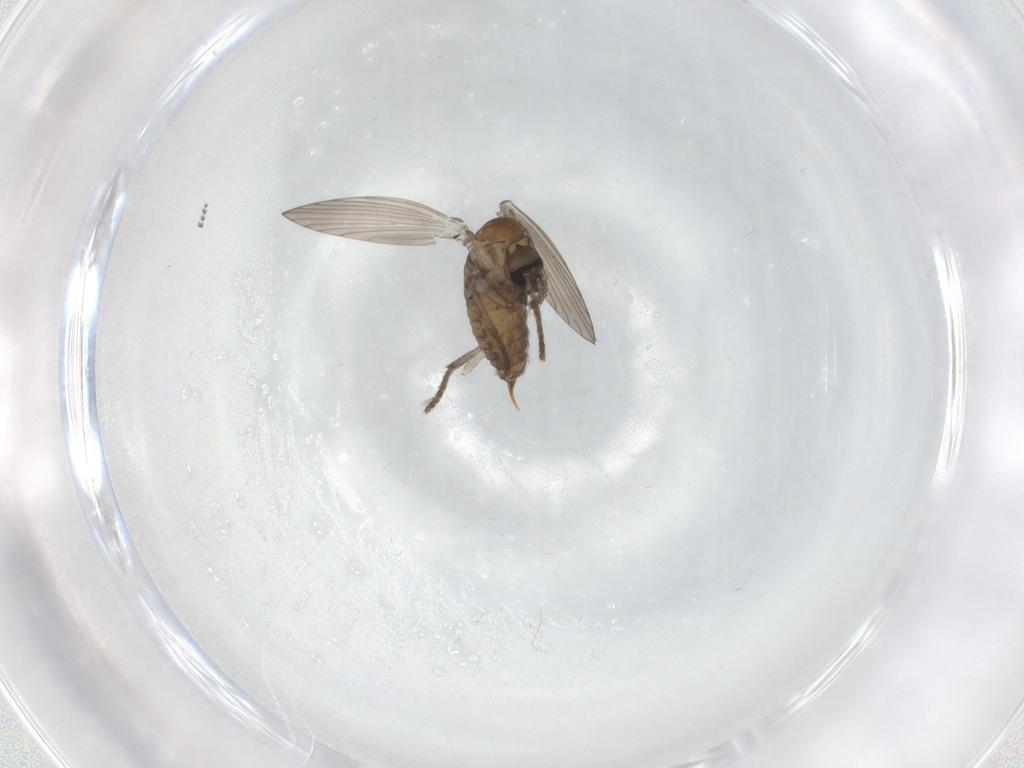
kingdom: Animalia
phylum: Arthropoda
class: Insecta
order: Diptera
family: Psychodidae
